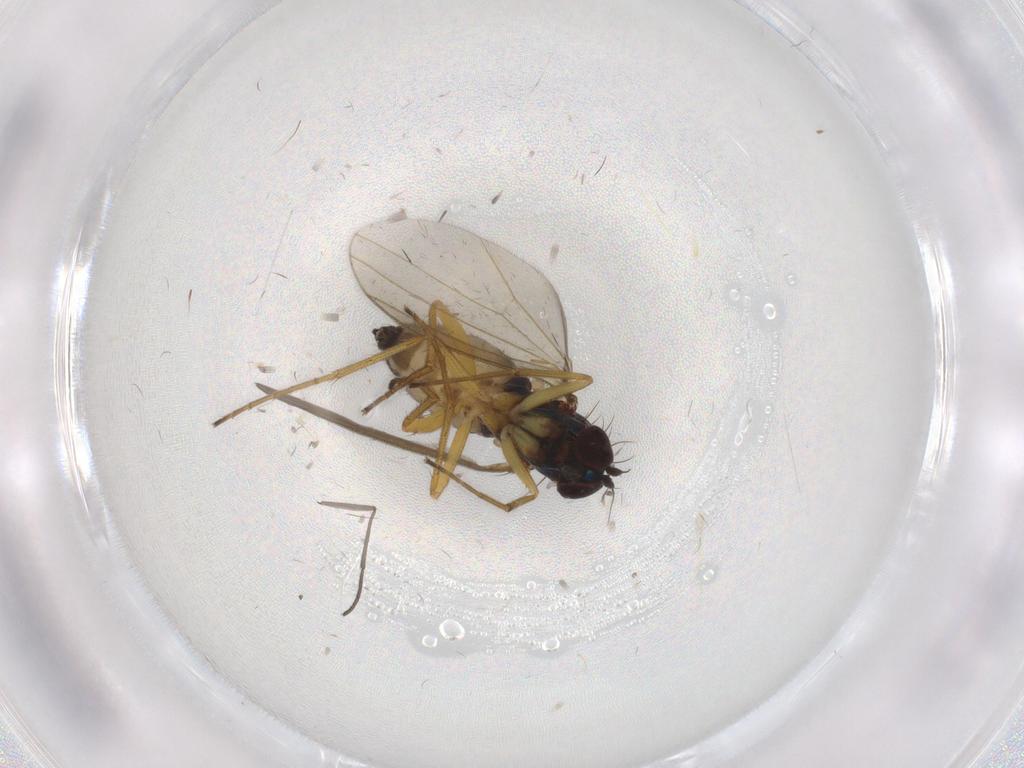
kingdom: Animalia
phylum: Arthropoda
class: Insecta
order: Diptera
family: Dolichopodidae
